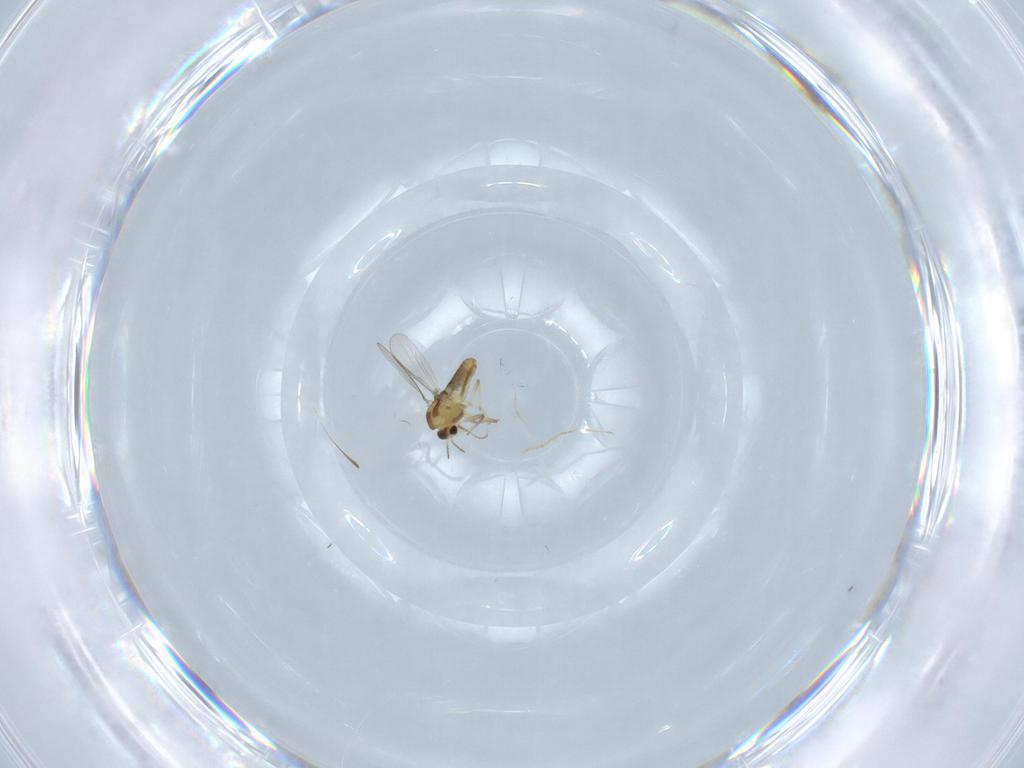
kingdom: Animalia
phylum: Arthropoda
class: Insecta
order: Diptera
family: Chironomidae
